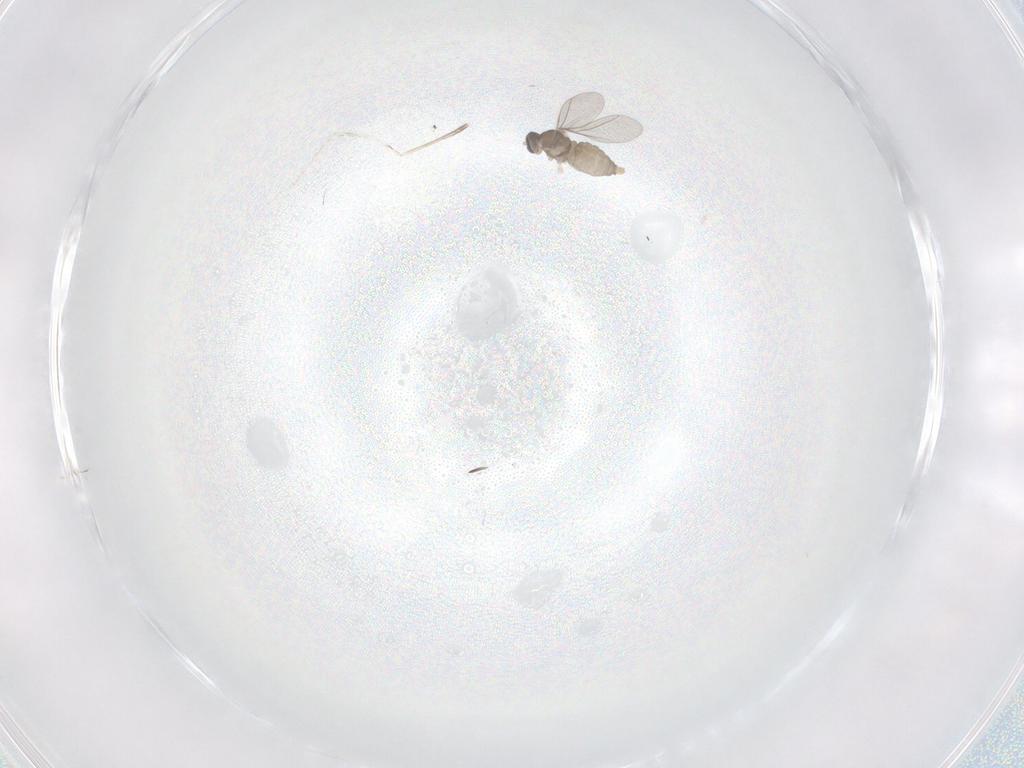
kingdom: Animalia
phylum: Arthropoda
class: Insecta
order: Diptera
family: Cecidomyiidae
